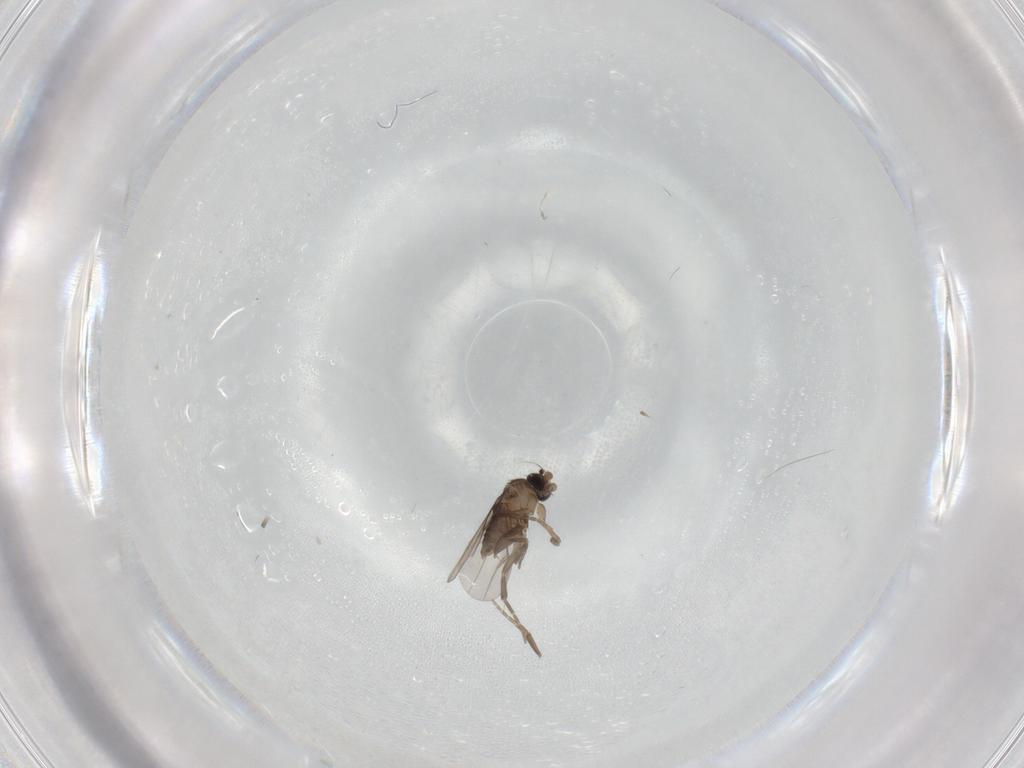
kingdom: Animalia
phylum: Arthropoda
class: Insecta
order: Diptera
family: Phoridae
